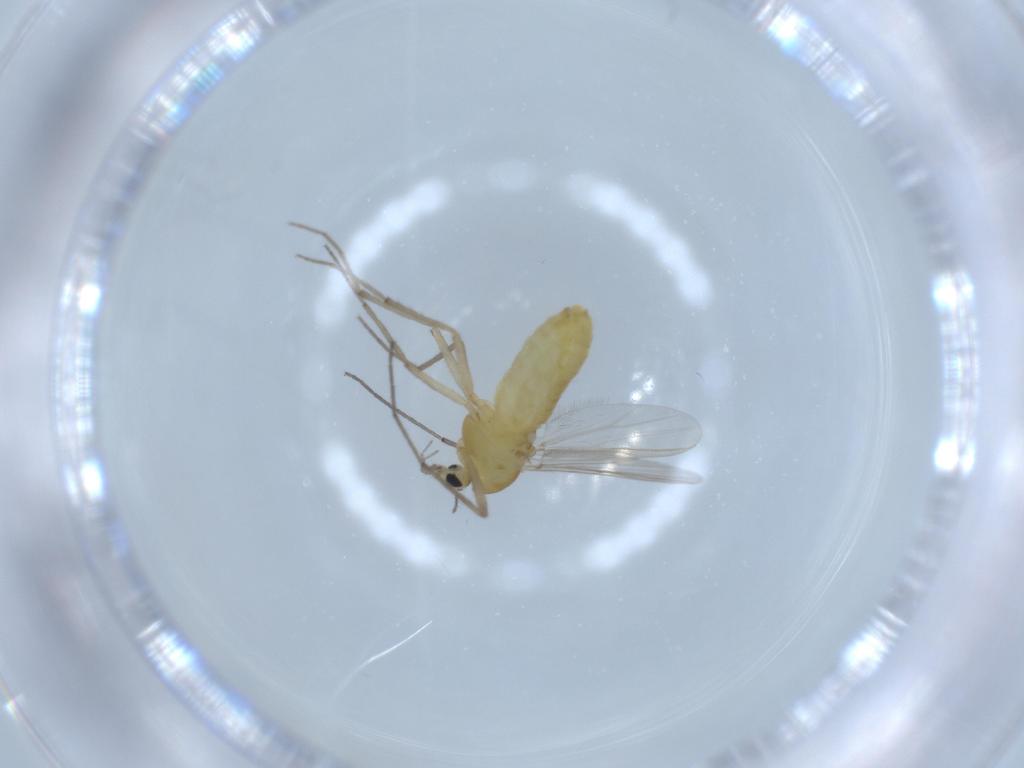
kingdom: Animalia
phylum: Arthropoda
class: Insecta
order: Diptera
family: Chironomidae
